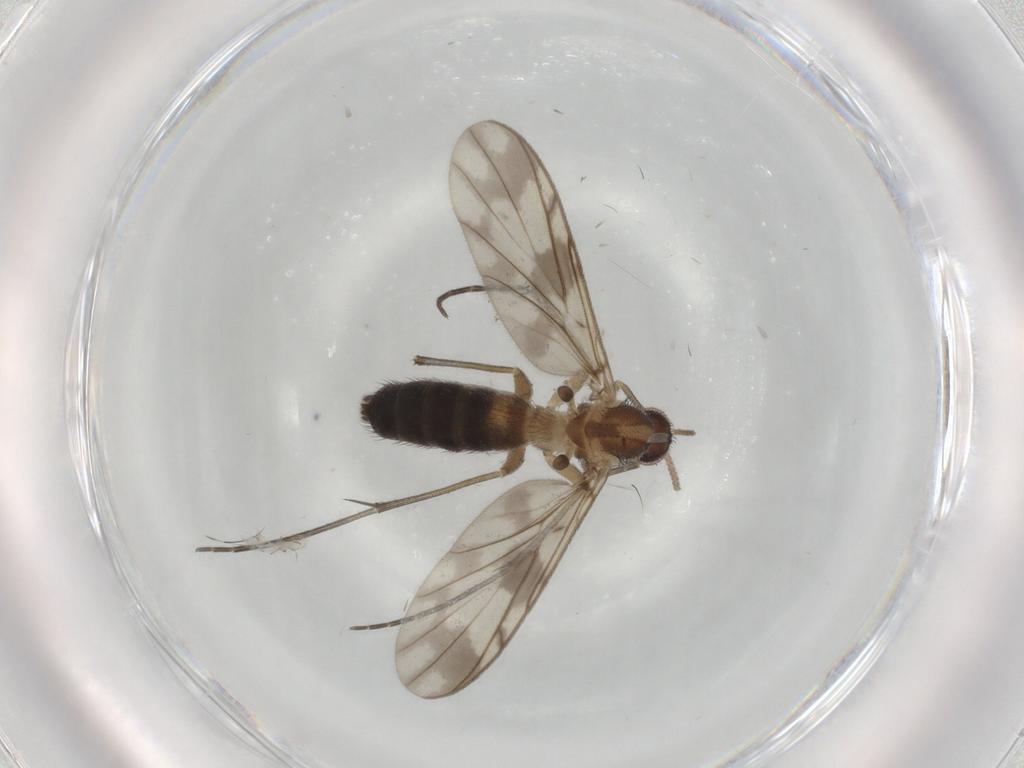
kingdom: Animalia
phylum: Arthropoda
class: Insecta
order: Diptera
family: Keroplatidae
